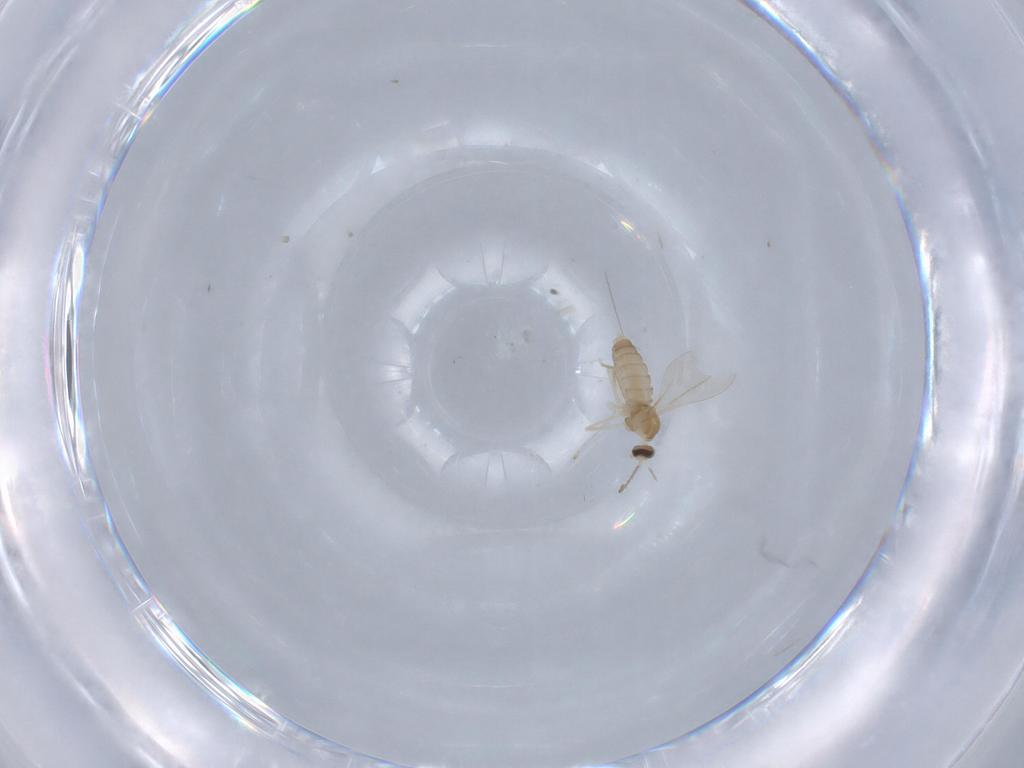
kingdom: Animalia
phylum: Arthropoda
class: Insecta
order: Diptera
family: Cecidomyiidae
